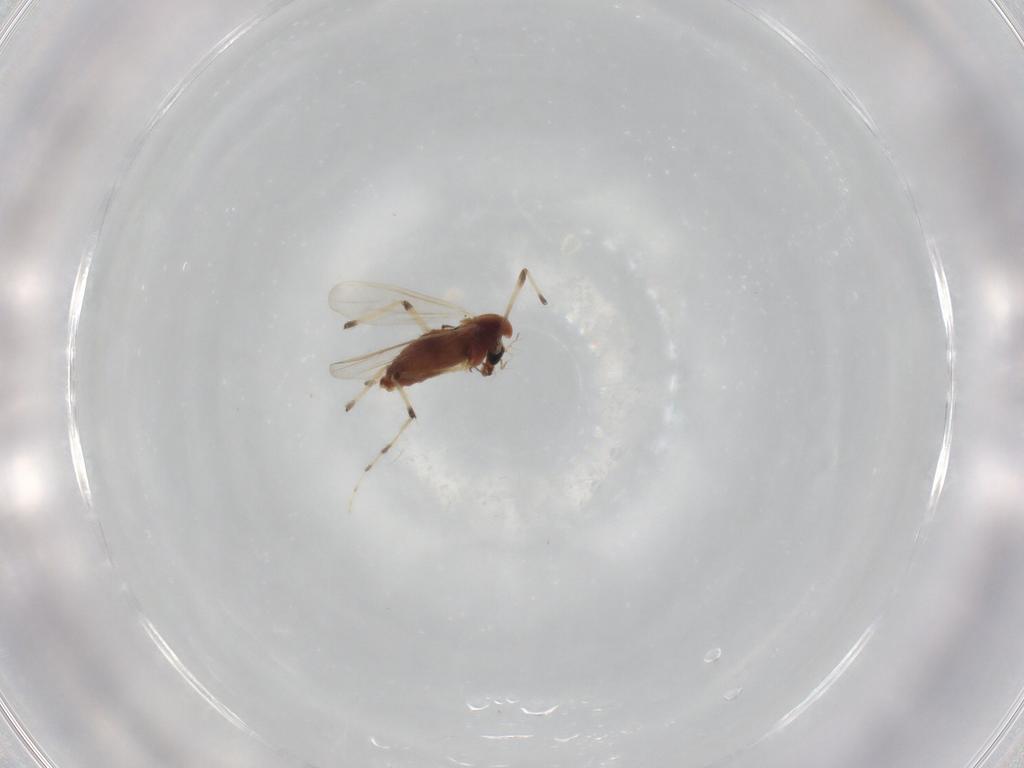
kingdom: Animalia
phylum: Arthropoda
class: Insecta
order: Diptera
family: Chironomidae
